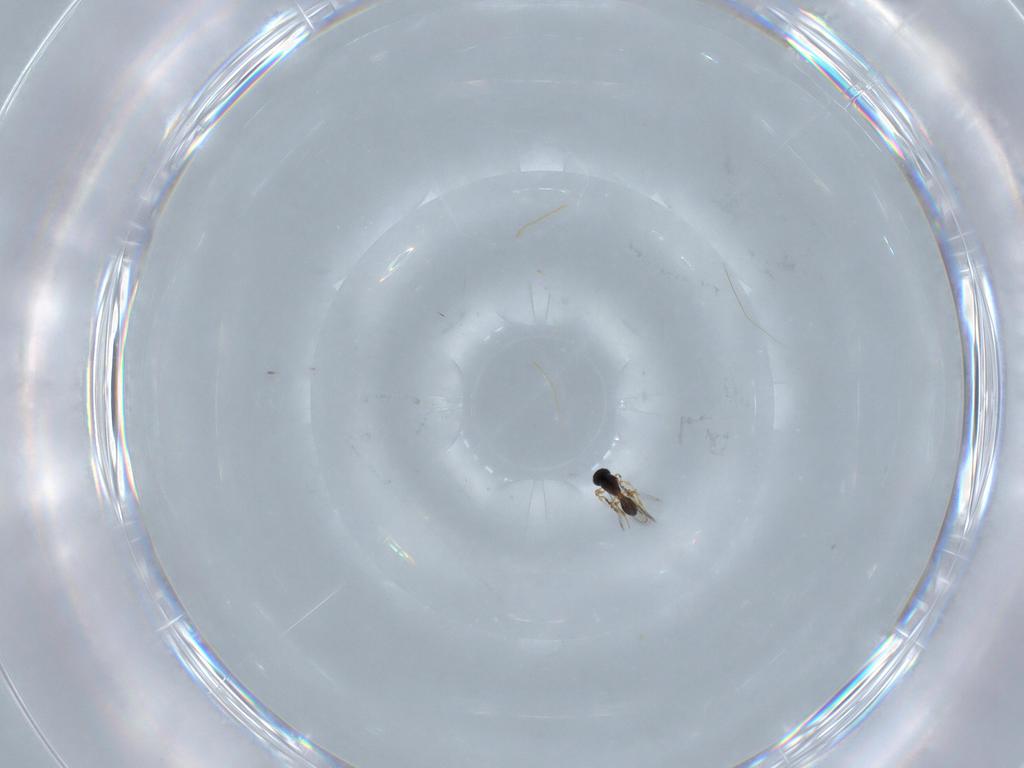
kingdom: Animalia
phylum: Arthropoda
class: Insecta
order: Hymenoptera
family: Platygastridae
